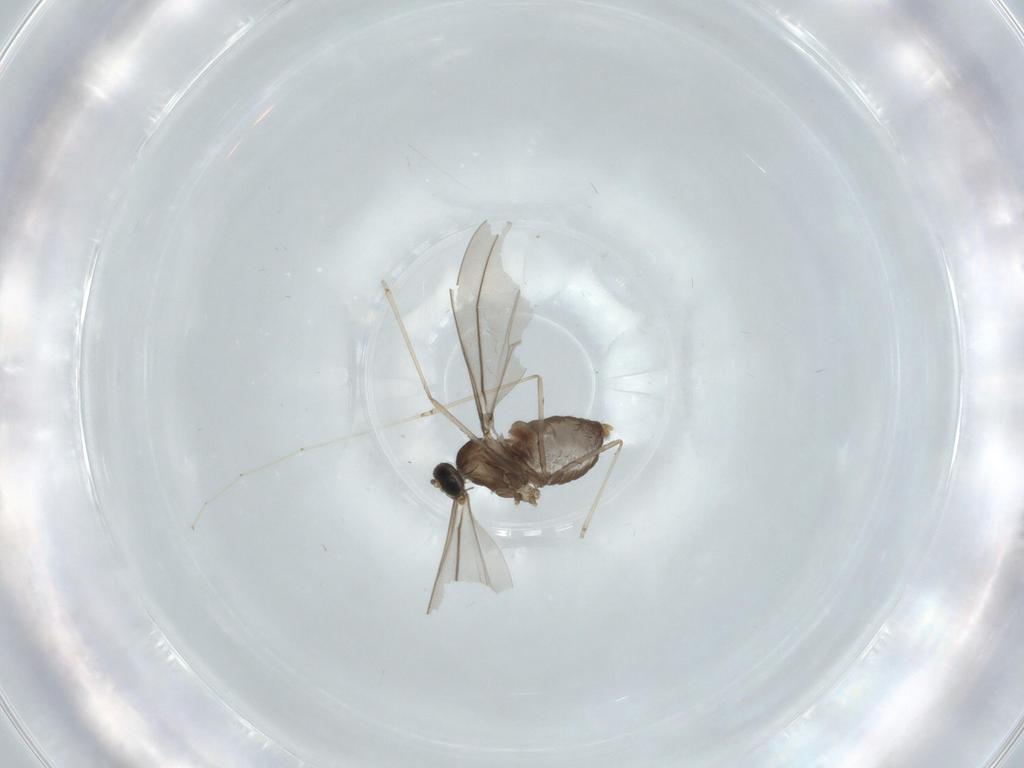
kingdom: Animalia
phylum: Arthropoda
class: Insecta
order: Diptera
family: Cecidomyiidae
